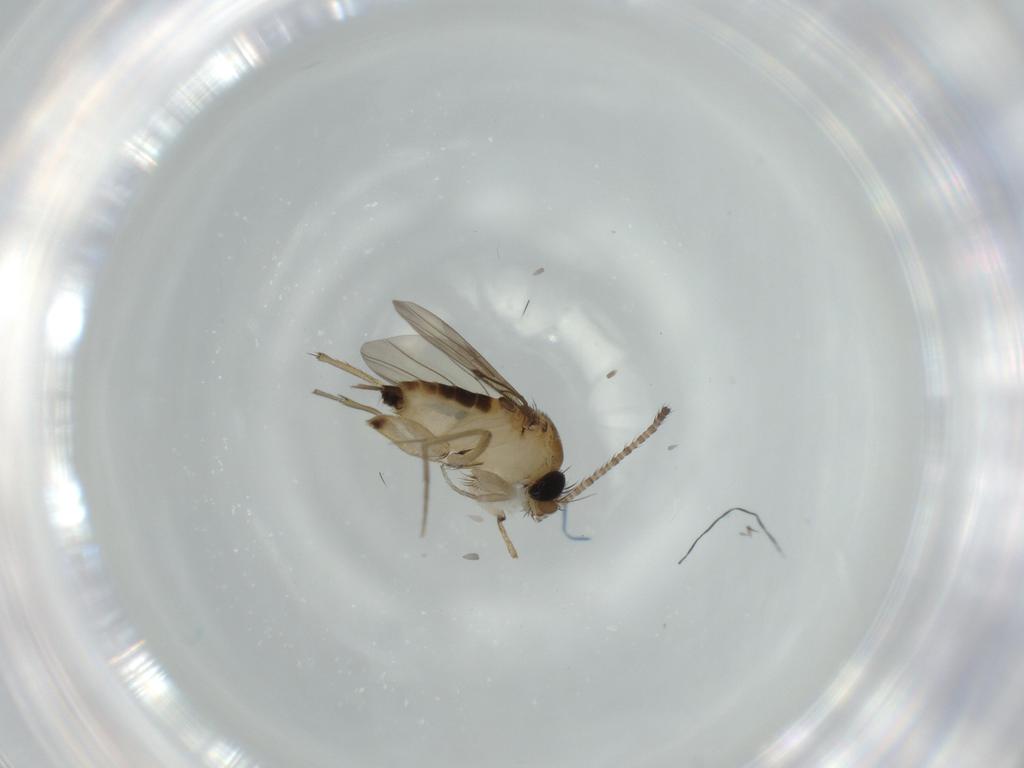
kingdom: Animalia
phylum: Arthropoda
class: Insecta
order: Diptera
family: Phoridae
